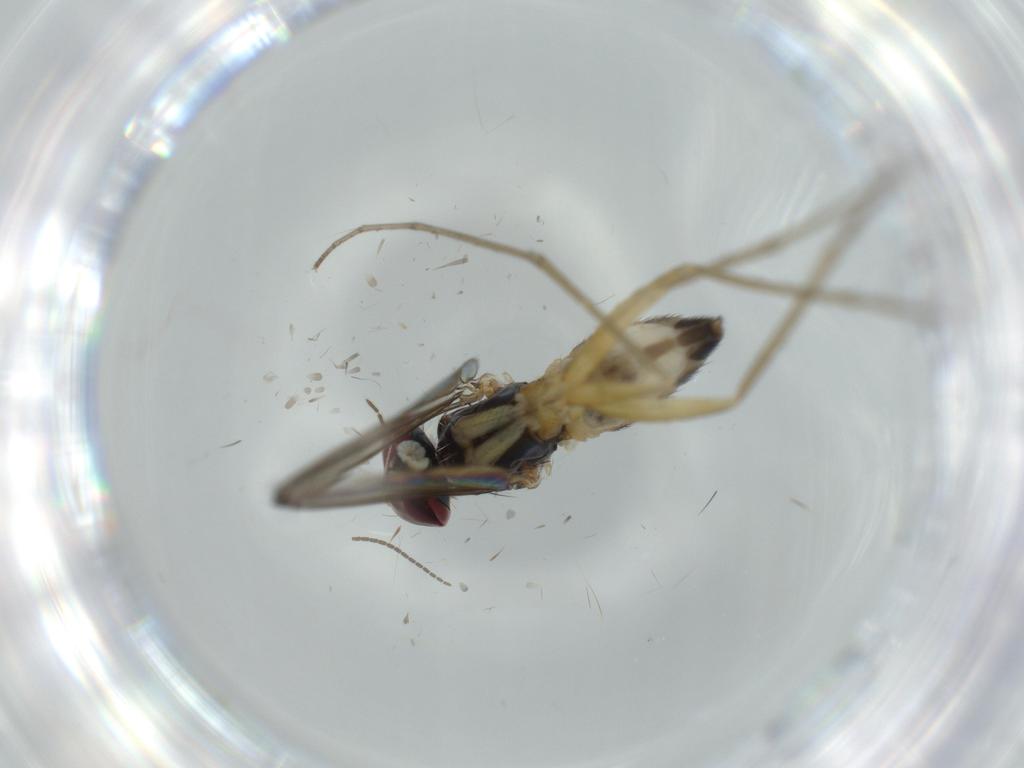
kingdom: Animalia
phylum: Arthropoda
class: Insecta
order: Diptera
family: Dolichopodidae
